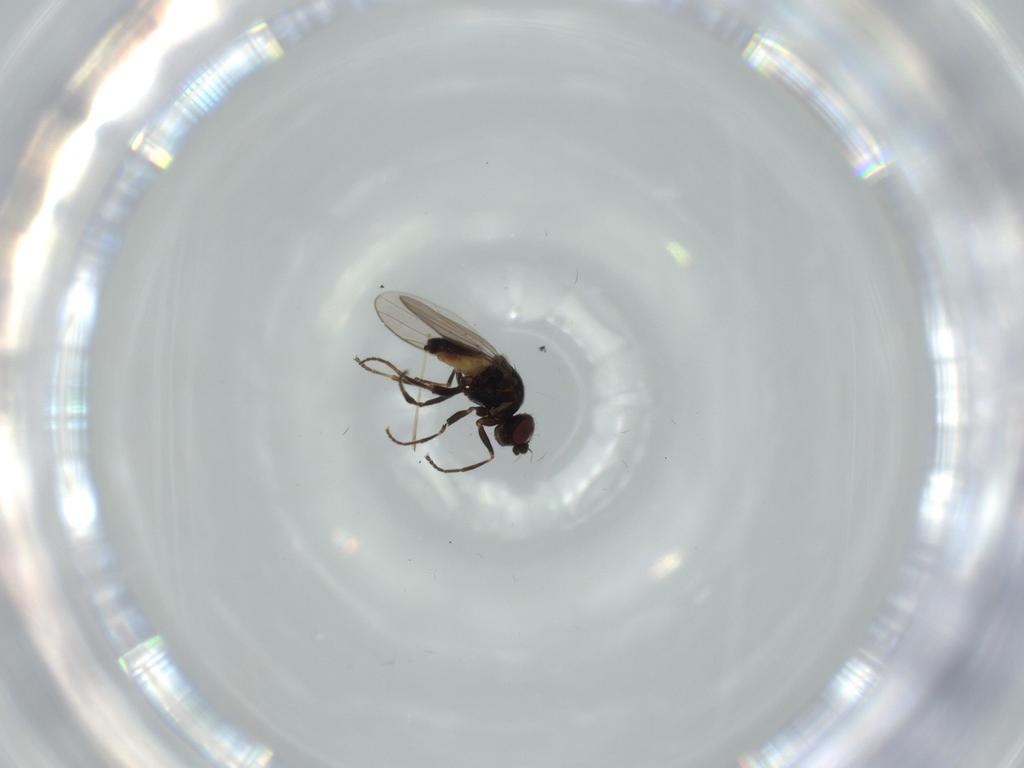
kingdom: Animalia
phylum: Arthropoda
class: Insecta
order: Diptera
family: Chloropidae
